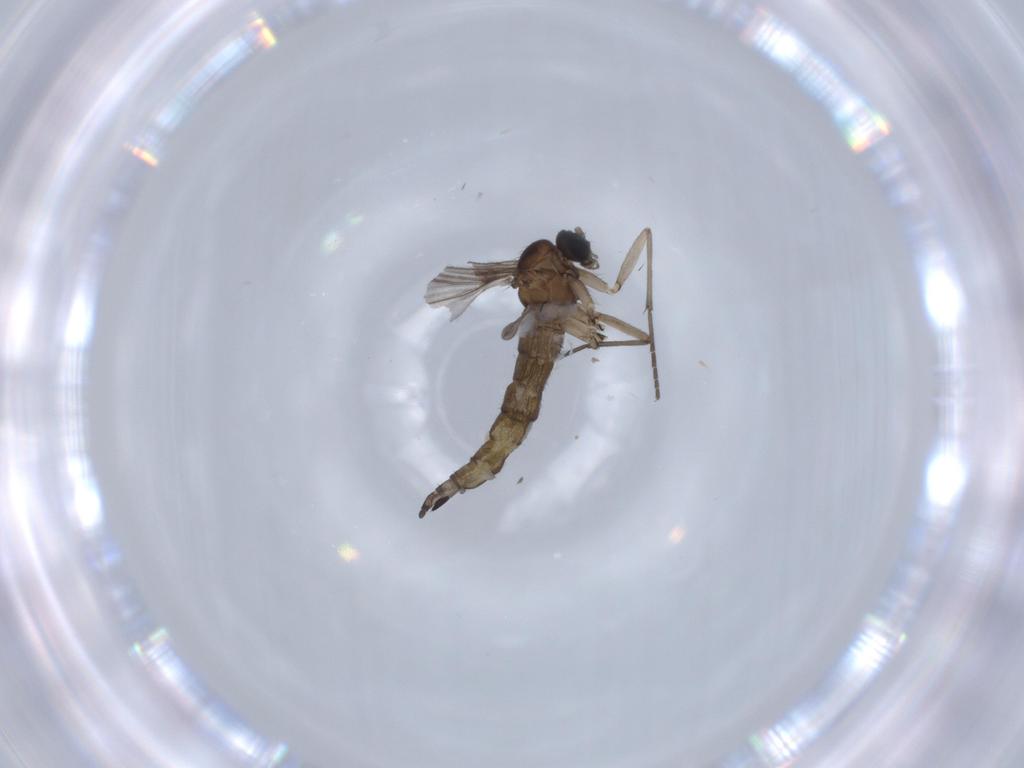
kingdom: Animalia
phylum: Arthropoda
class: Insecta
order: Diptera
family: Sciaridae
